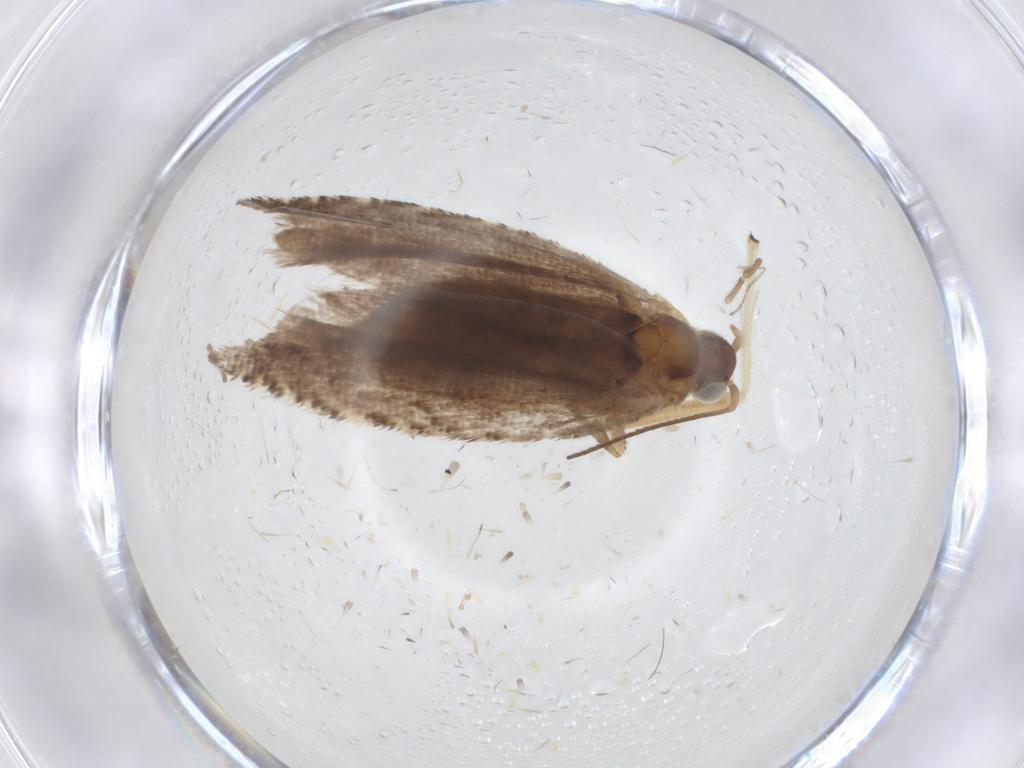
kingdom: Animalia
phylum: Arthropoda
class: Insecta
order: Lepidoptera
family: Tortricidae
